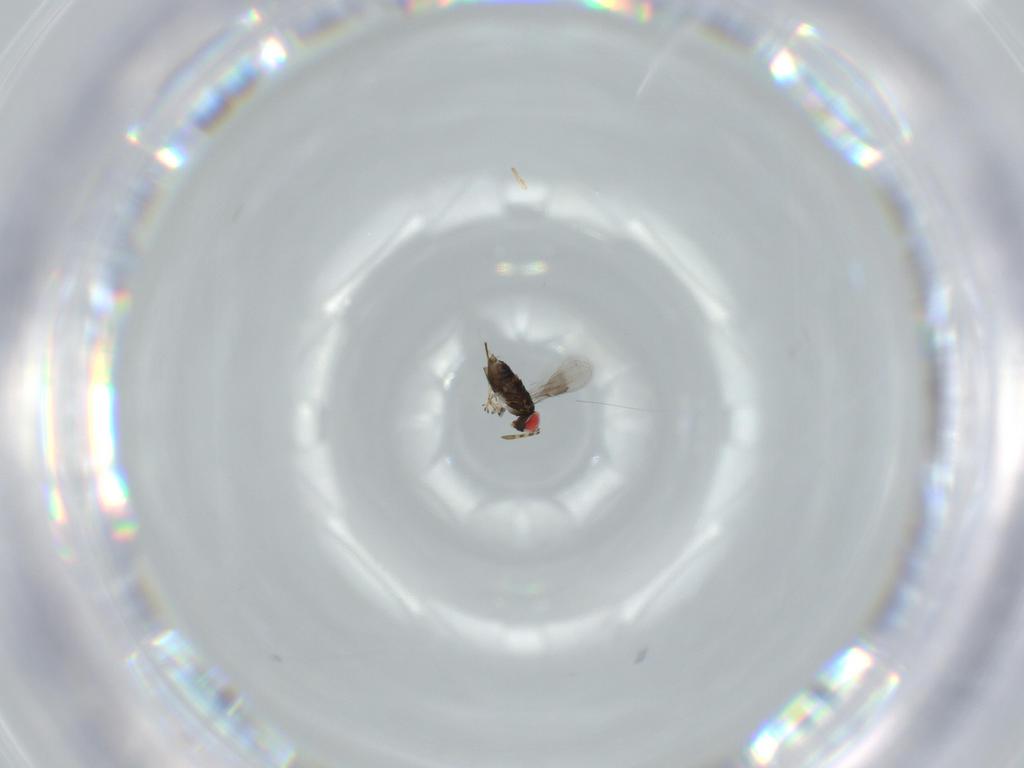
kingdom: Animalia
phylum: Arthropoda
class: Insecta
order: Hymenoptera
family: Azotidae
